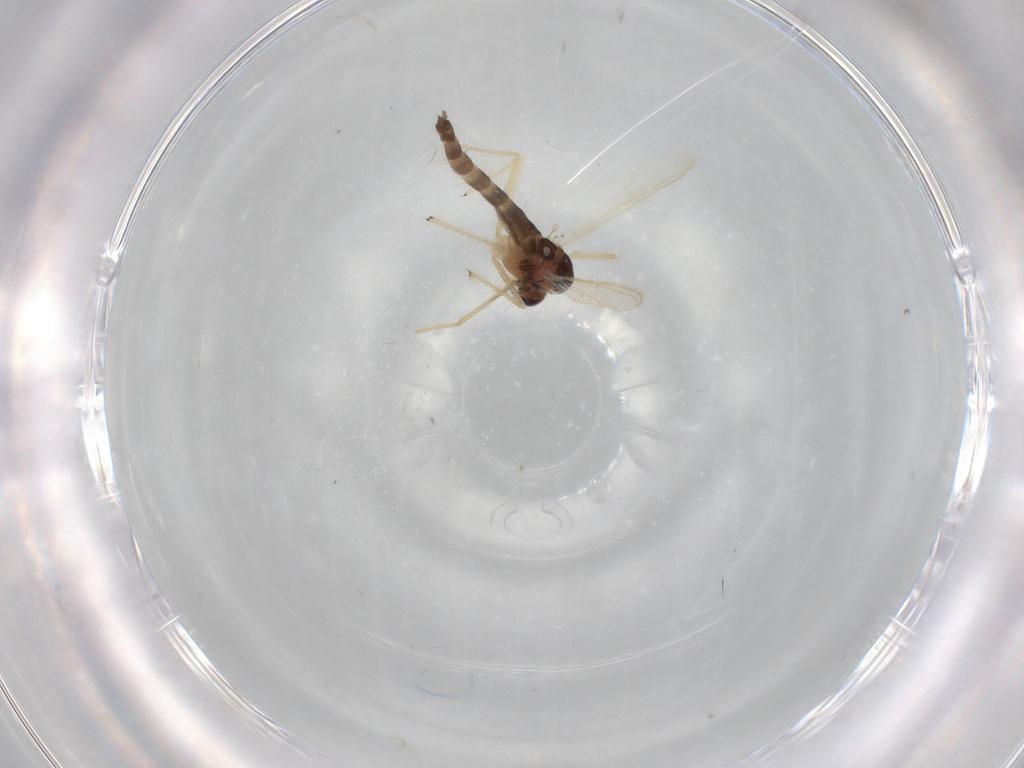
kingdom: Animalia
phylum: Arthropoda
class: Insecta
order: Diptera
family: Chironomidae
